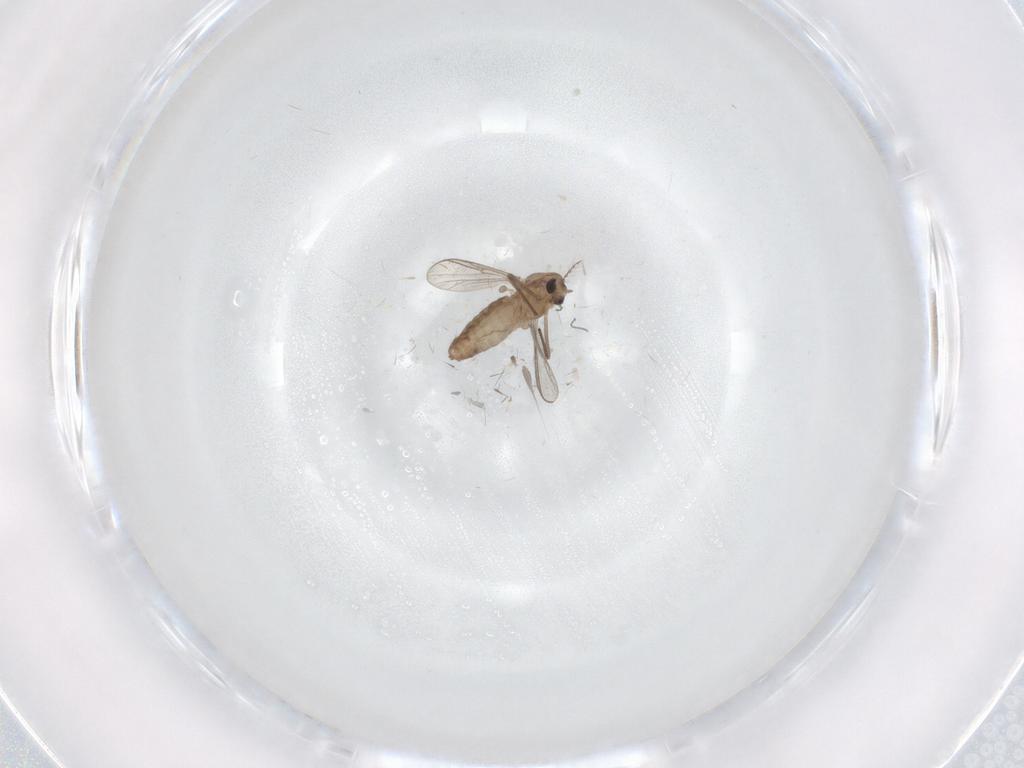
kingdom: Animalia
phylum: Arthropoda
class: Insecta
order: Diptera
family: Chironomidae
